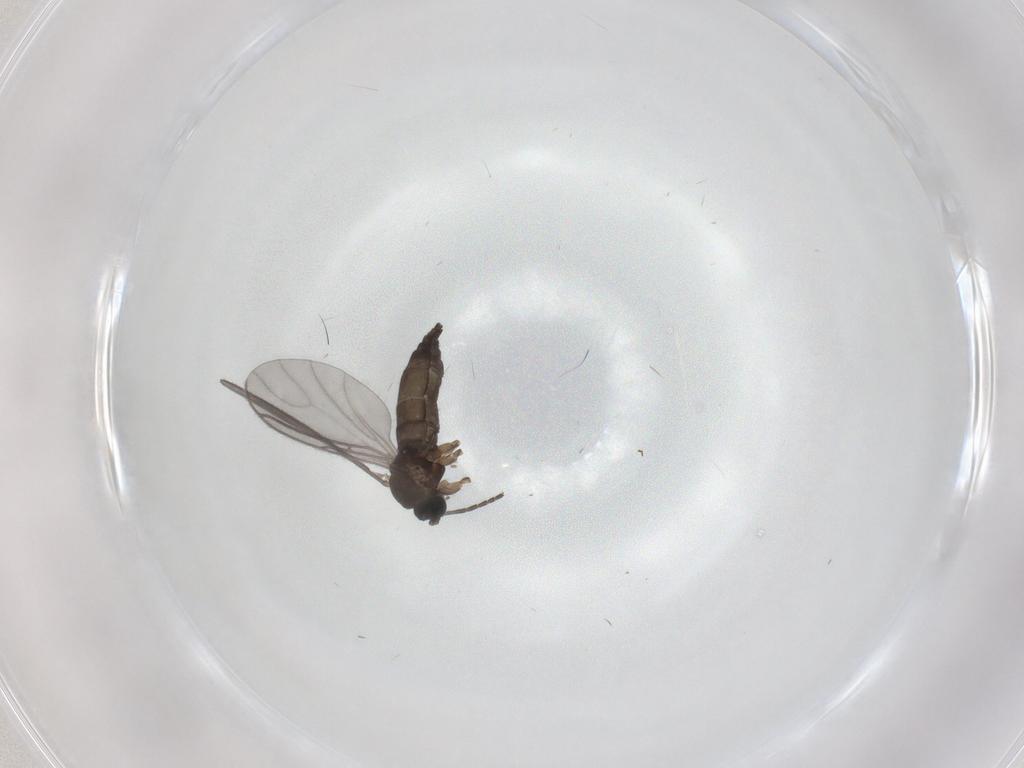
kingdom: Animalia
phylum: Arthropoda
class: Insecta
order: Diptera
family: Sciaridae
